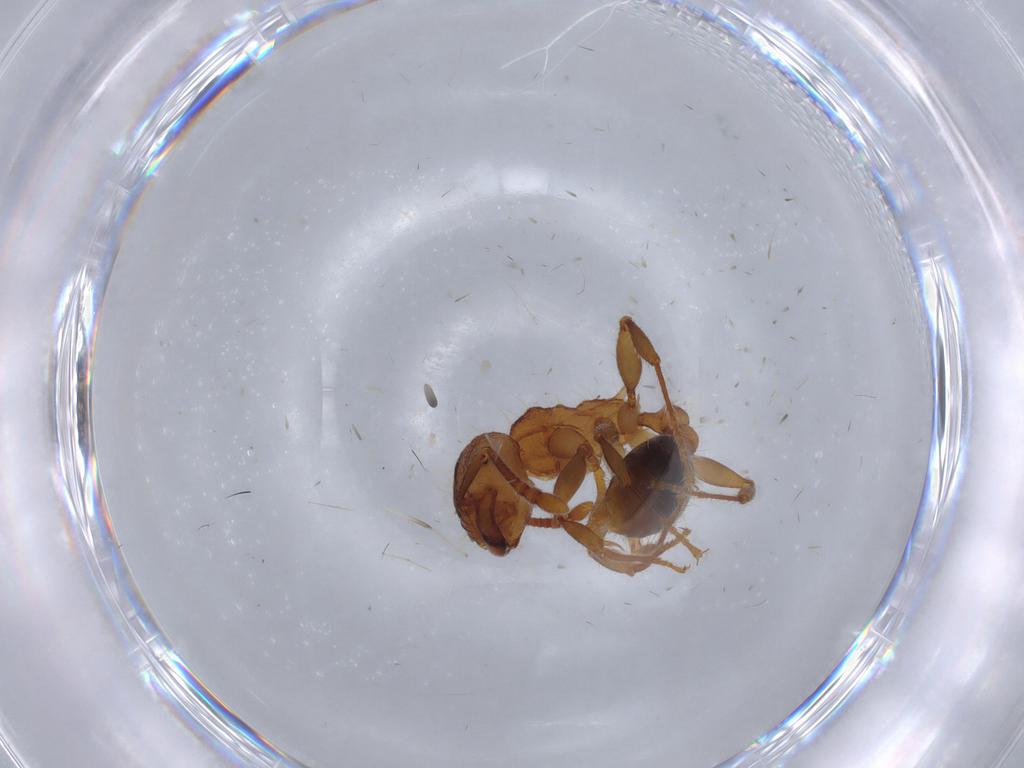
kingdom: Animalia
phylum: Arthropoda
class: Insecta
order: Hymenoptera
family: Formicidae
